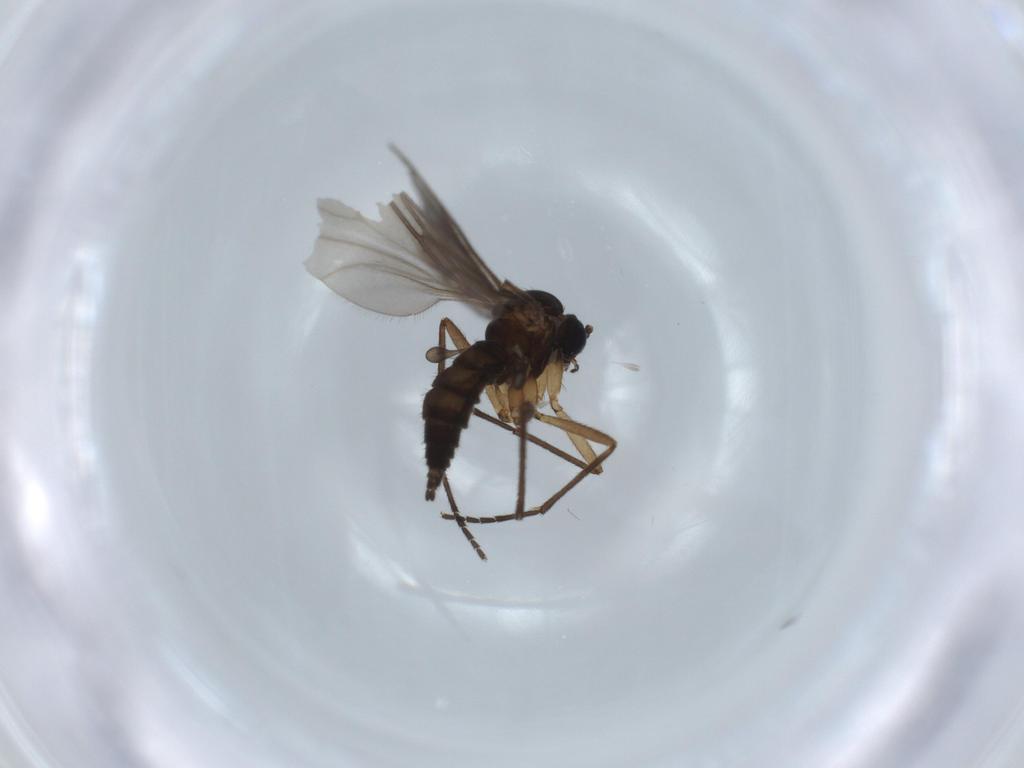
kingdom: Animalia
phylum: Arthropoda
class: Insecta
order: Diptera
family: Sciaridae
